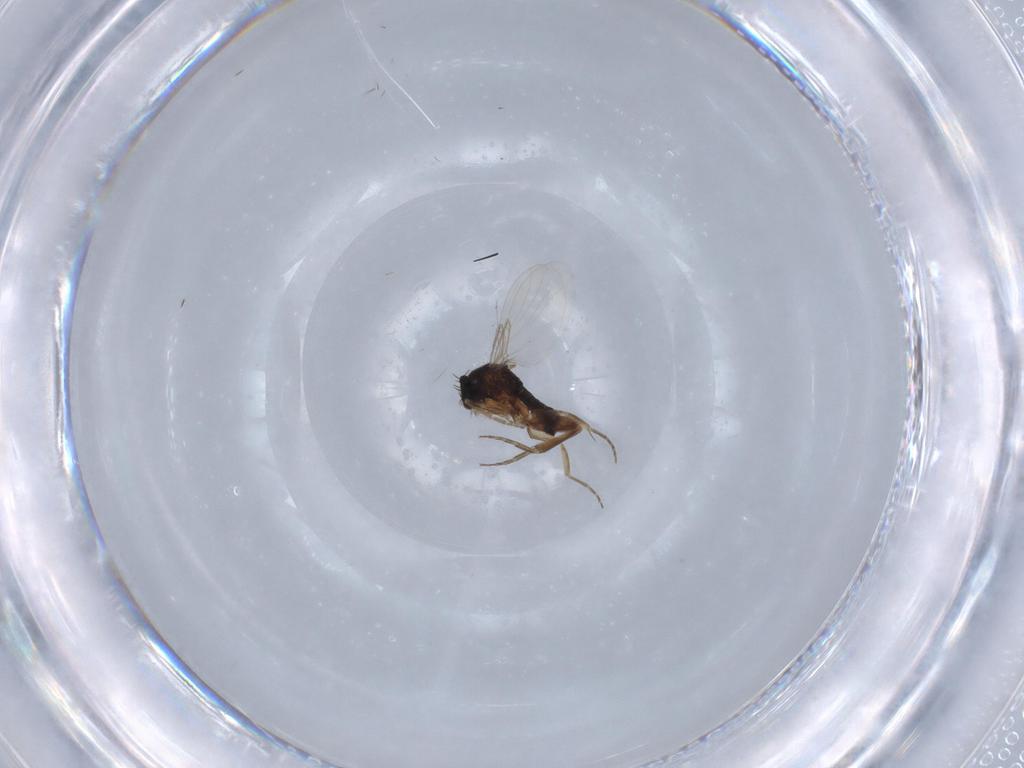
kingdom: Animalia
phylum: Arthropoda
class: Insecta
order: Diptera
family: Phoridae
